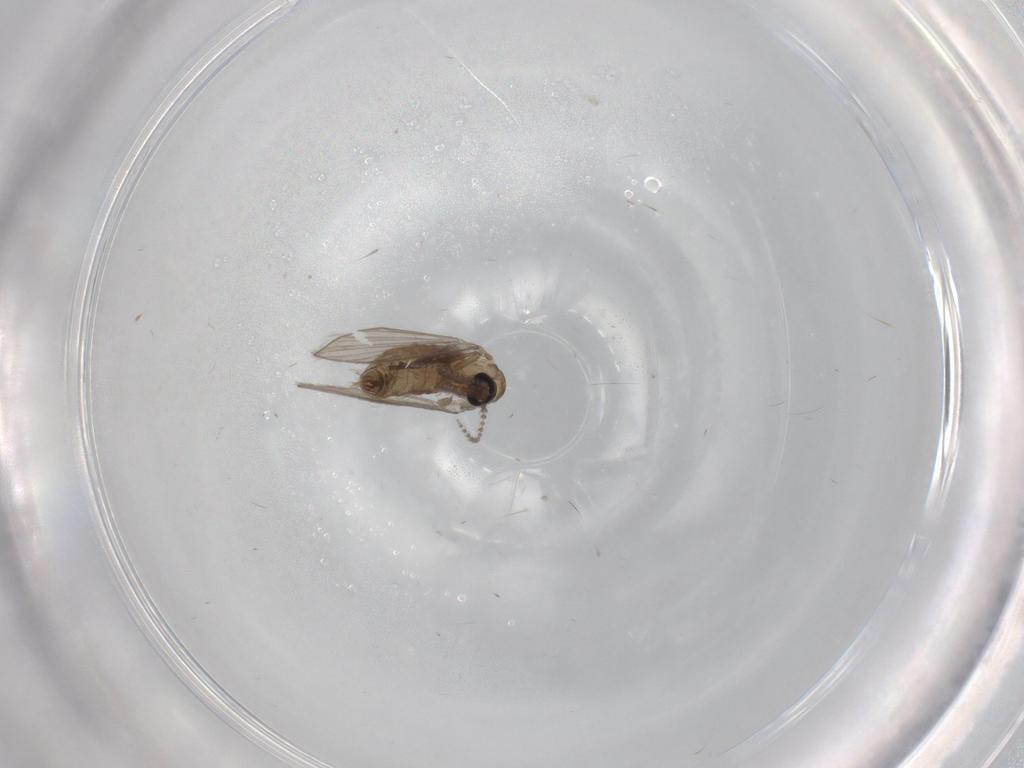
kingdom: Animalia
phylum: Arthropoda
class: Insecta
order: Diptera
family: Psychodidae
